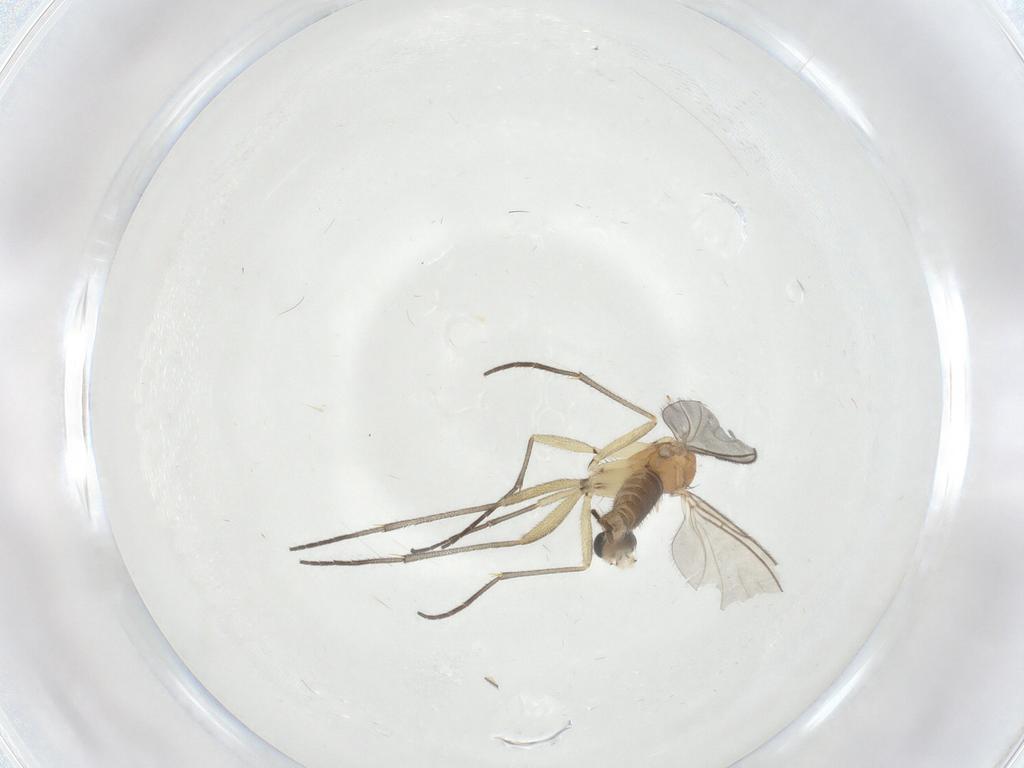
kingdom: Animalia
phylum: Arthropoda
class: Insecta
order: Diptera
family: Sciaridae
